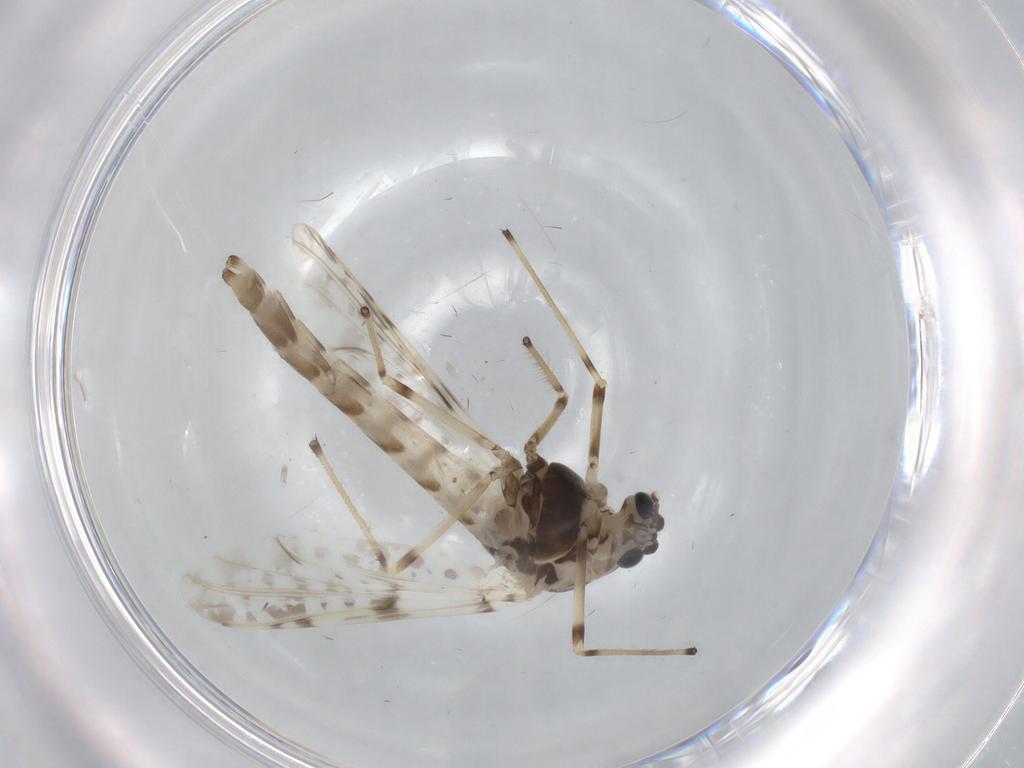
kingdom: Animalia
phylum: Arthropoda
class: Insecta
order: Diptera
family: Chironomidae
